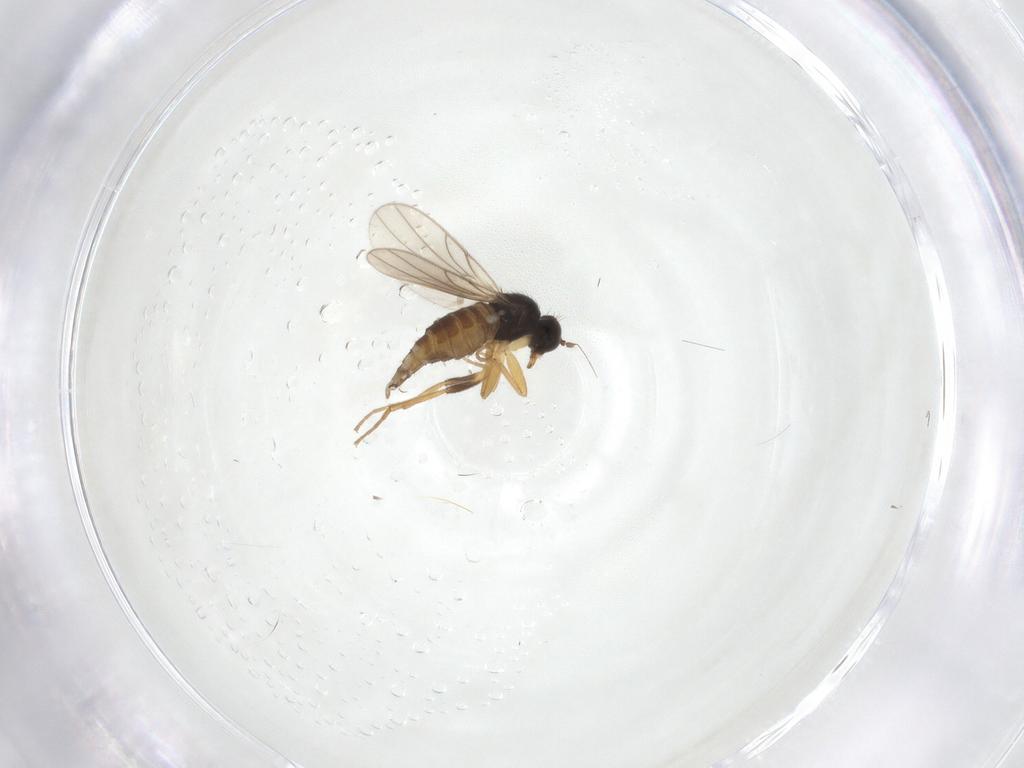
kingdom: Animalia
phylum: Arthropoda
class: Insecta
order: Diptera
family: Hybotidae
